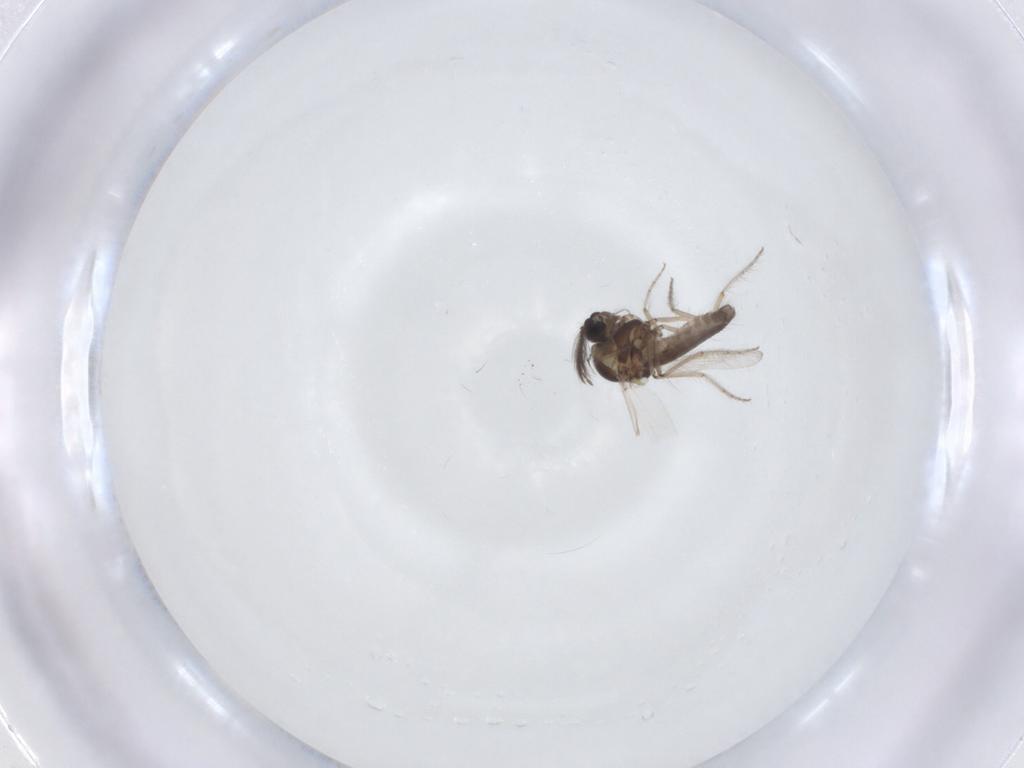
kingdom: Animalia
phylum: Arthropoda
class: Insecta
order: Diptera
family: Ceratopogonidae
